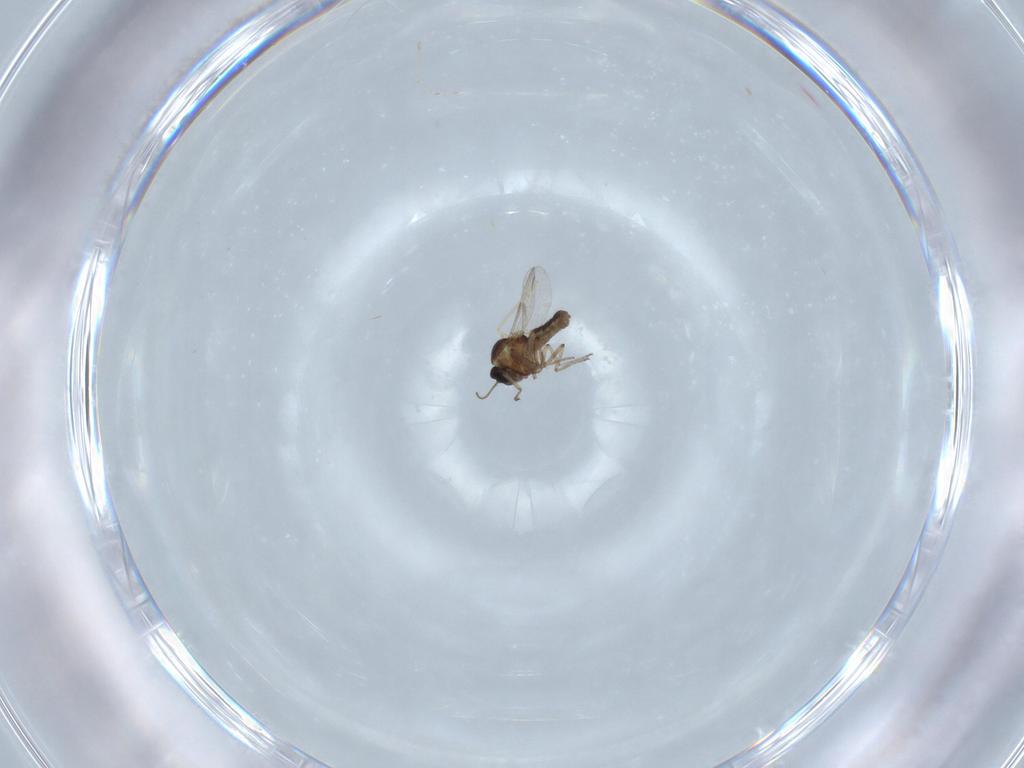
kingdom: Animalia
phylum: Arthropoda
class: Insecta
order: Diptera
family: Ceratopogonidae
